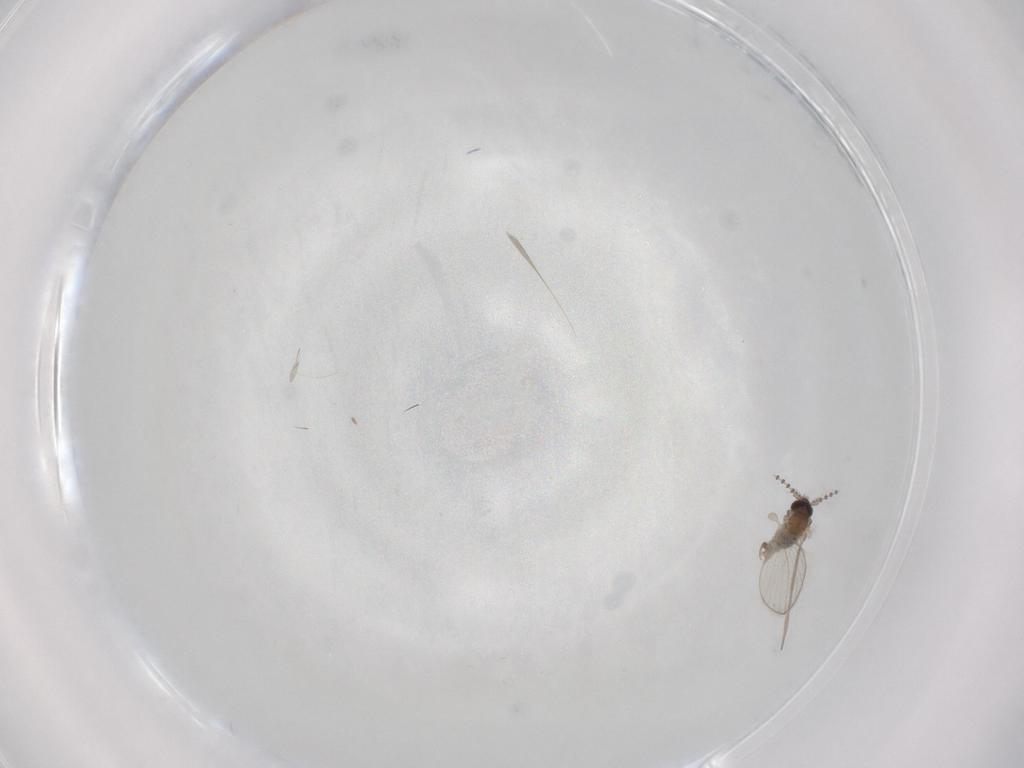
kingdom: Animalia
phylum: Arthropoda
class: Insecta
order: Diptera
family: Psychodidae
